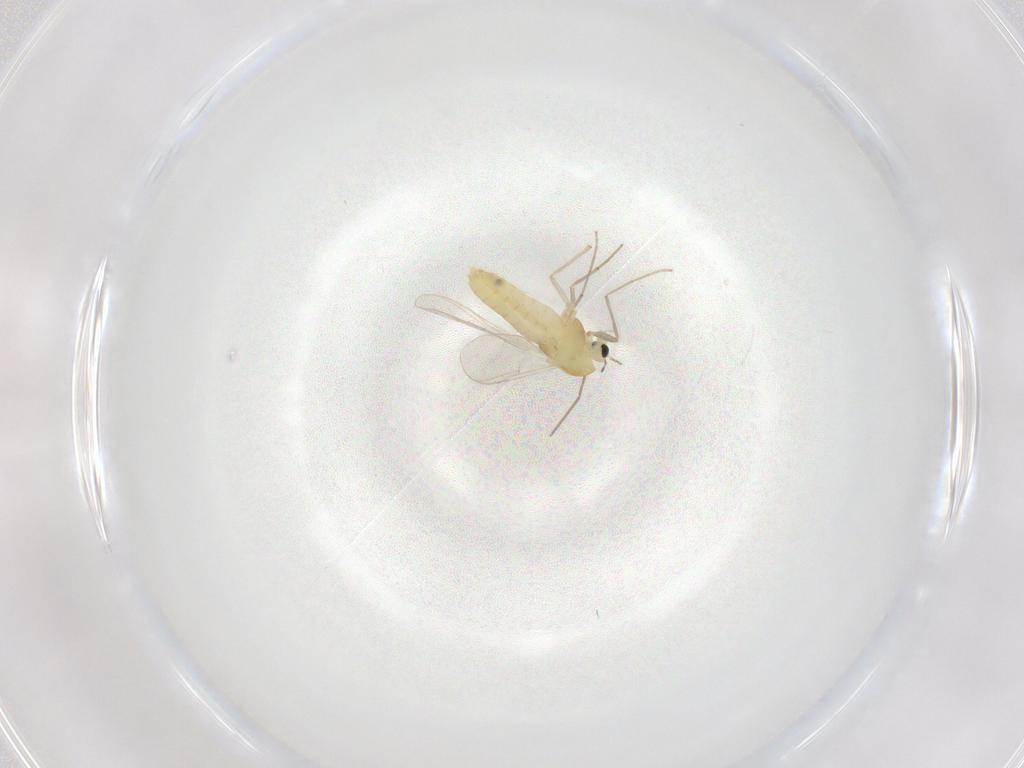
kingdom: Animalia
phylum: Arthropoda
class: Insecta
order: Diptera
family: Chironomidae
